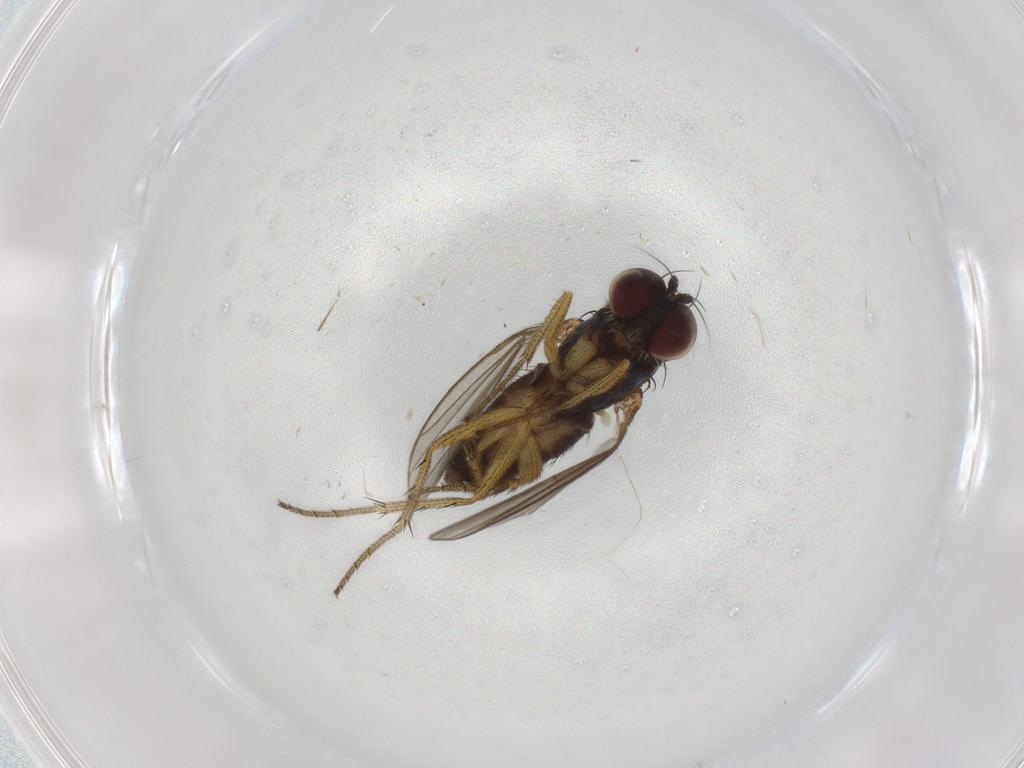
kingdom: Animalia
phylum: Arthropoda
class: Insecta
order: Diptera
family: Dolichopodidae
